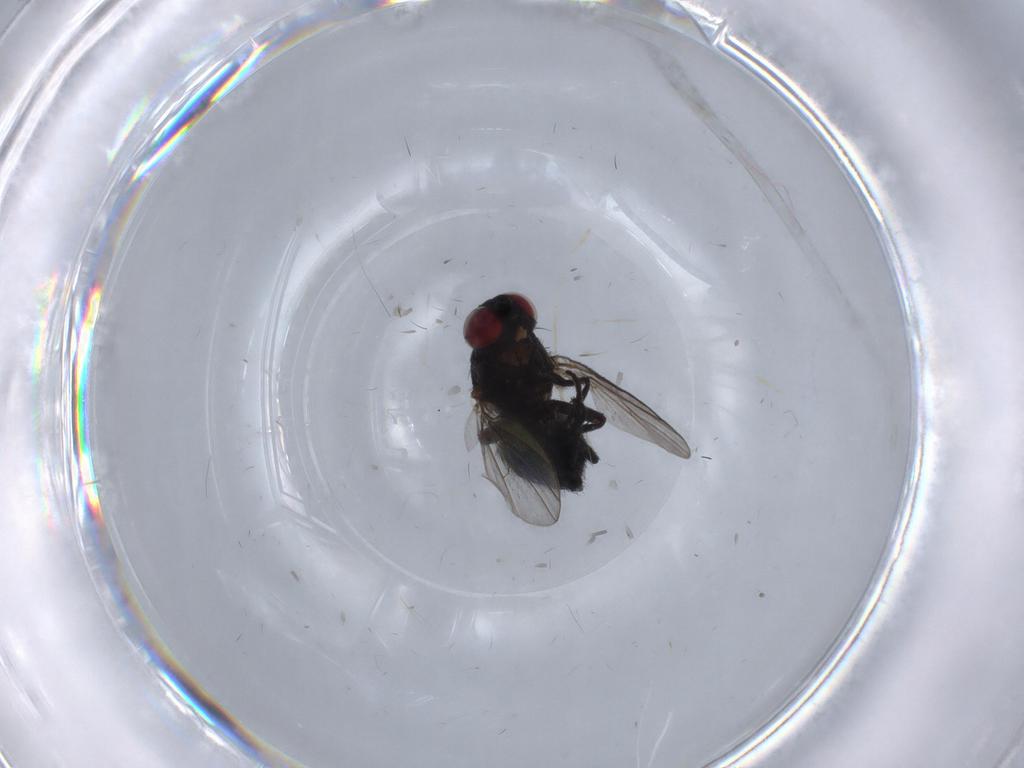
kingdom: Animalia
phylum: Arthropoda
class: Insecta
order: Diptera
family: Agromyzidae
